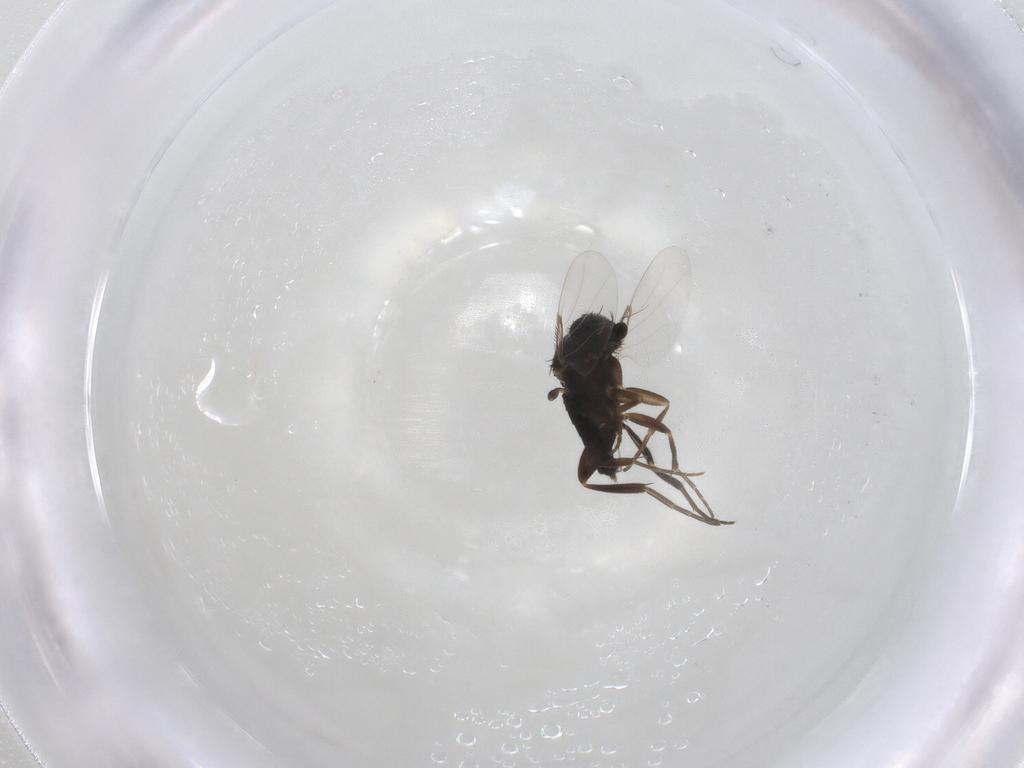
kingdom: Animalia
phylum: Arthropoda
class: Insecta
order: Diptera
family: Phoridae
